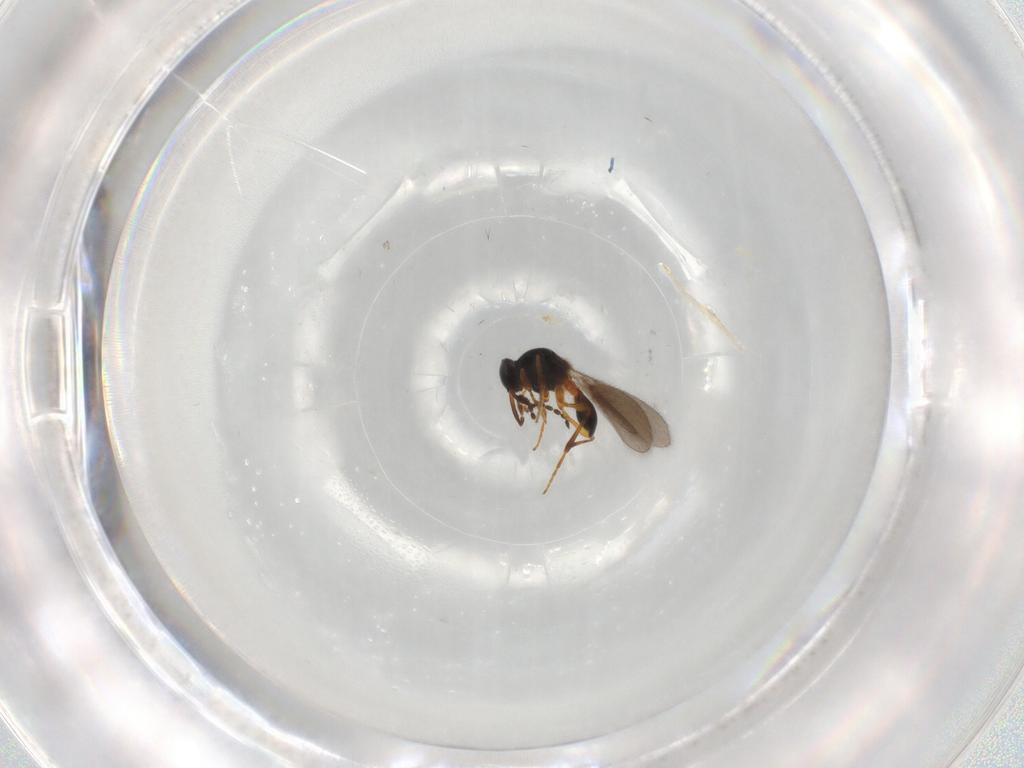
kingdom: Animalia
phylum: Arthropoda
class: Insecta
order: Hymenoptera
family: Platygastridae
